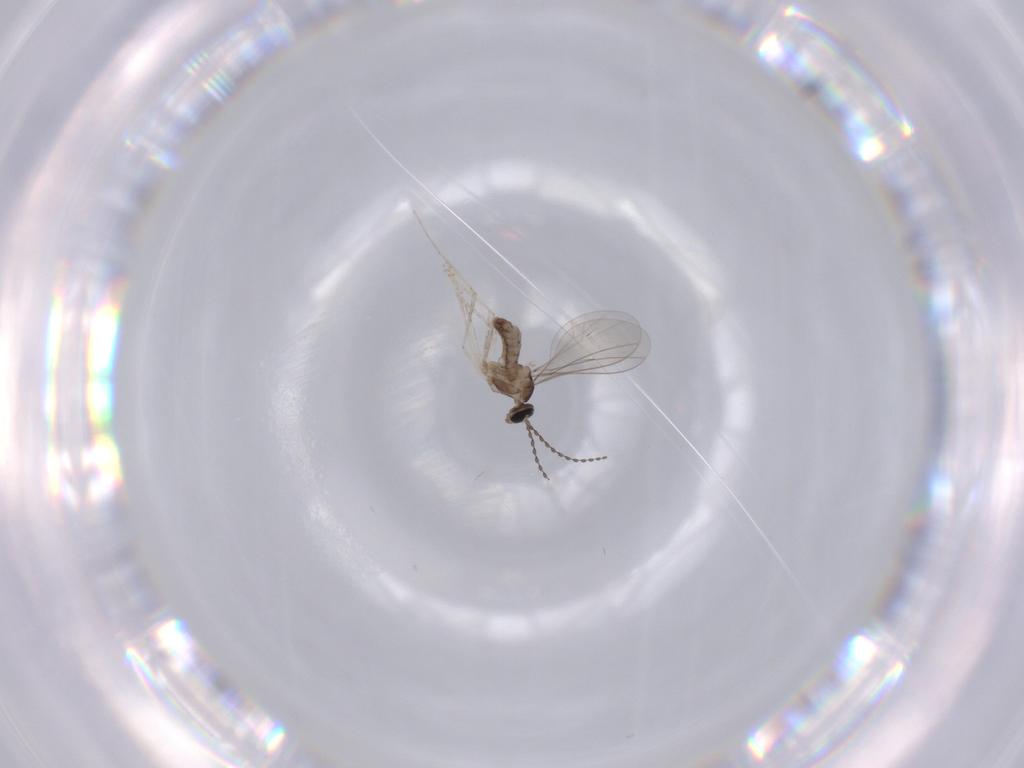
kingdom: Animalia
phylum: Arthropoda
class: Insecta
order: Diptera
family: Cecidomyiidae
